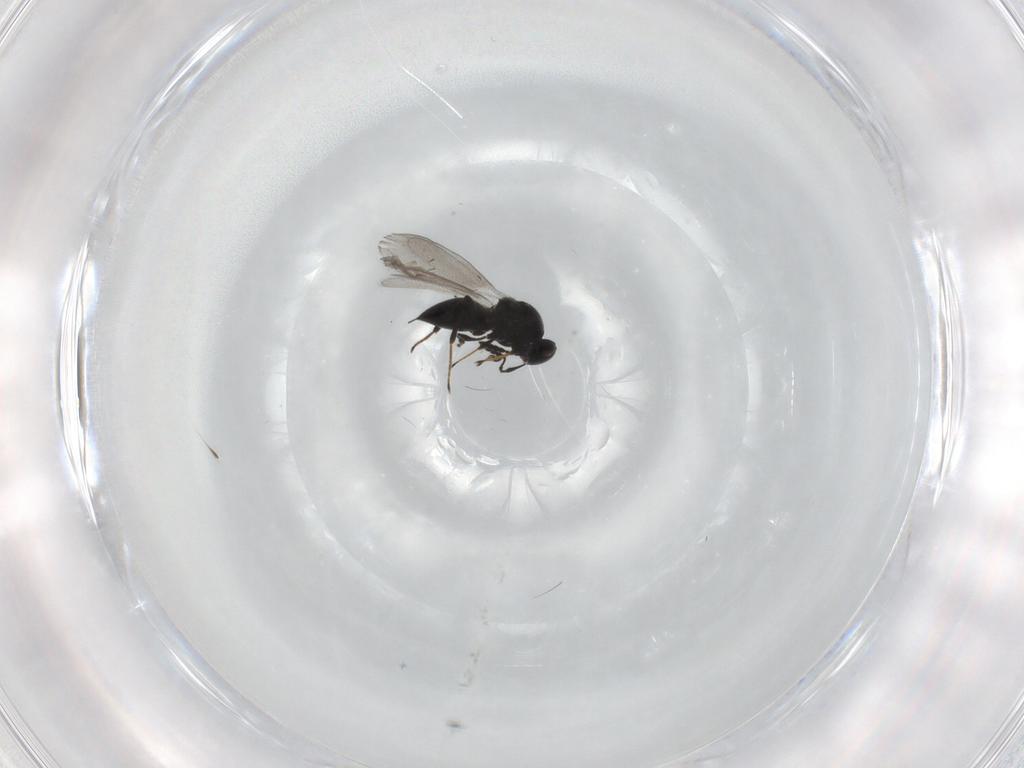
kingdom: Animalia
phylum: Arthropoda
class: Insecta
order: Hymenoptera
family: Platygastridae
